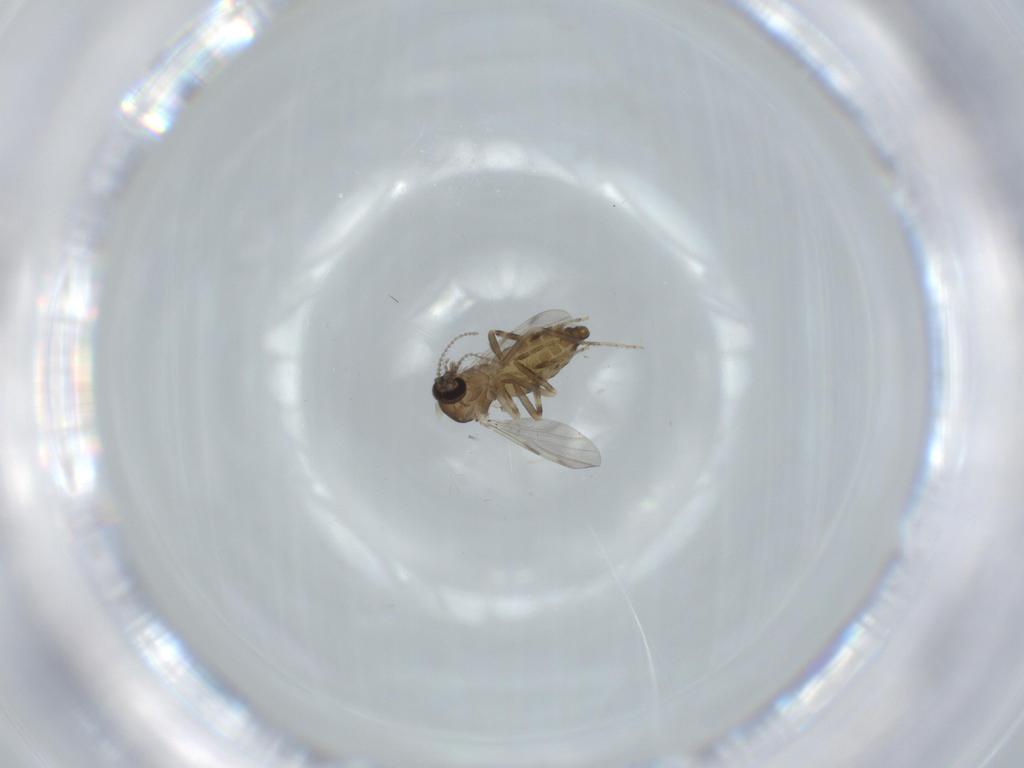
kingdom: Animalia
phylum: Arthropoda
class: Insecta
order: Diptera
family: Ceratopogonidae
